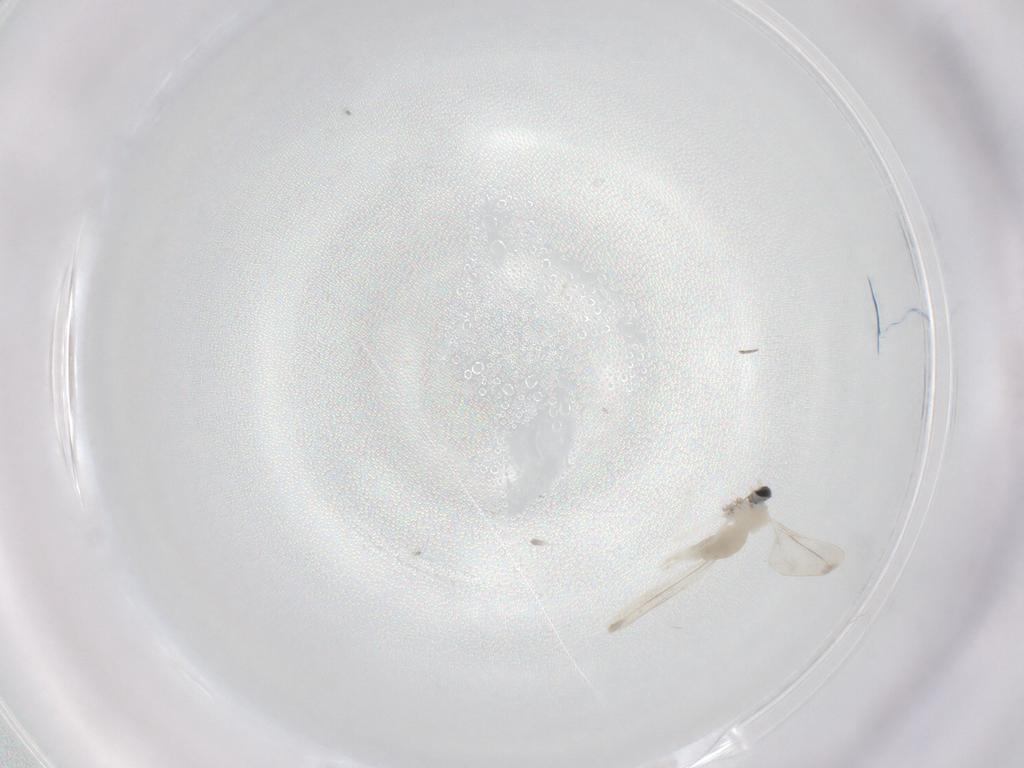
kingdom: Animalia
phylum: Arthropoda
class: Insecta
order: Diptera
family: Cecidomyiidae
